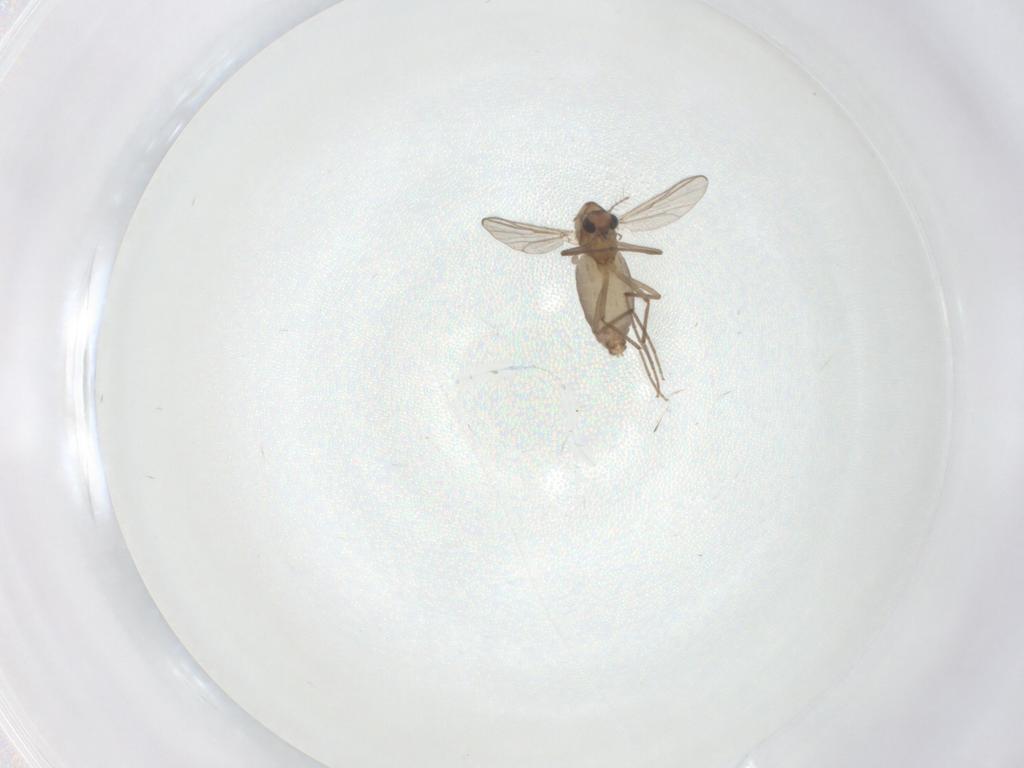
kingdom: Animalia
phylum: Arthropoda
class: Insecta
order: Diptera
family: Chironomidae
